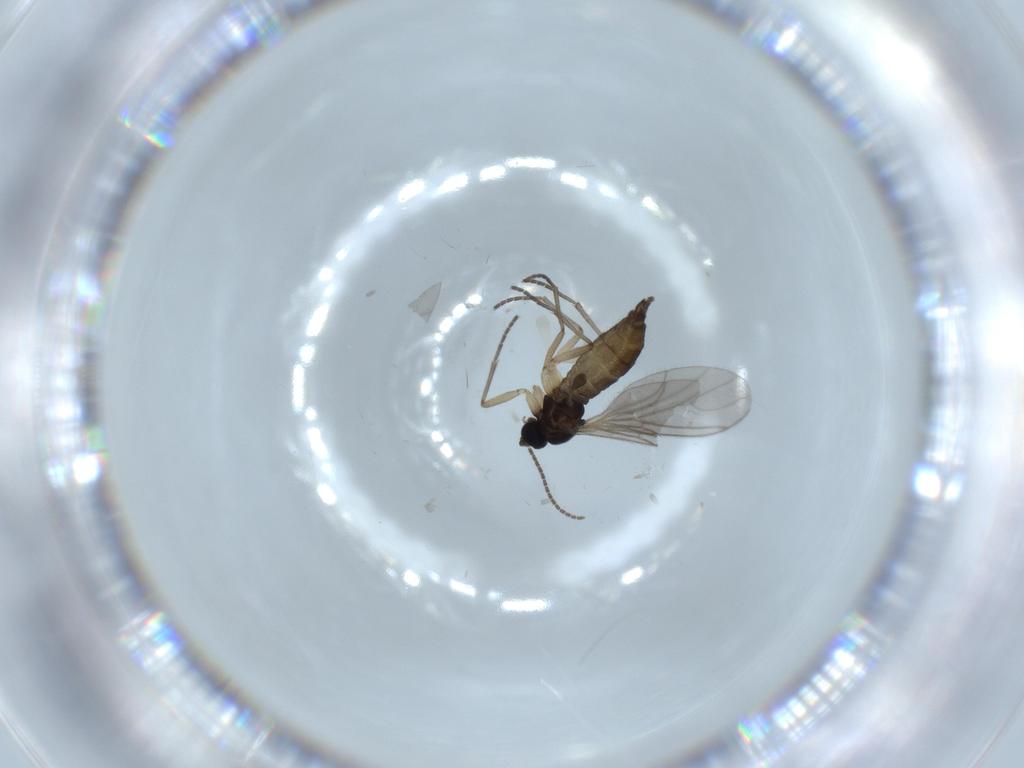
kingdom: Animalia
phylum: Arthropoda
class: Insecta
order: Diptera
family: Sciaridae
